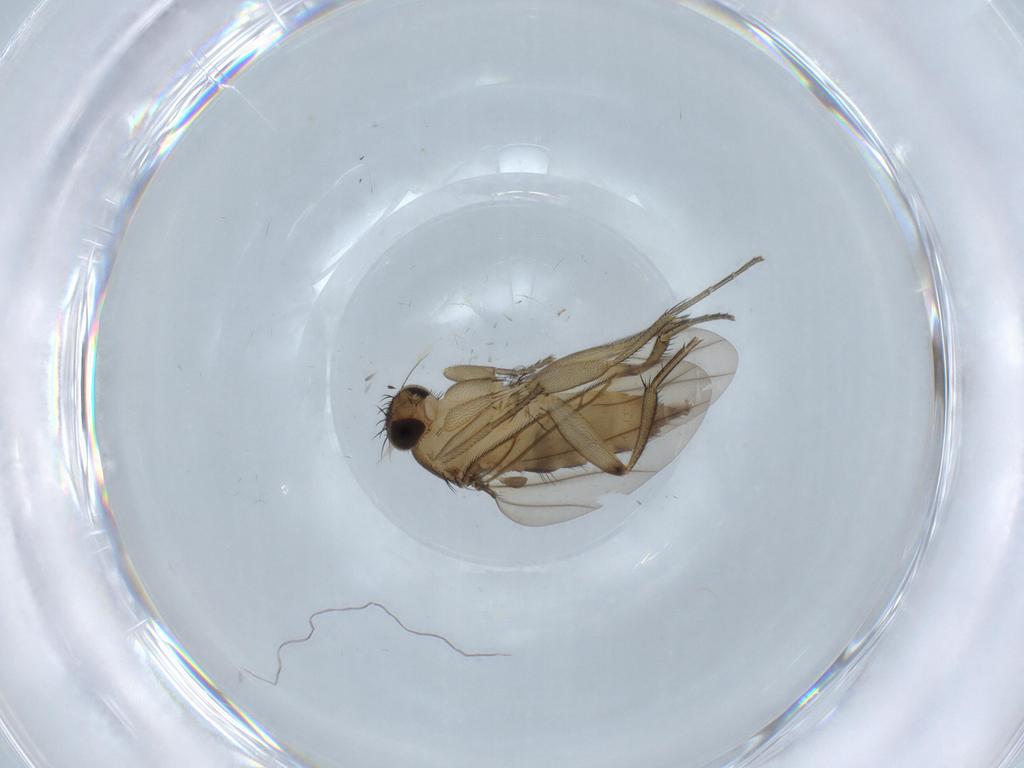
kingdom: Animalia
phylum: Arthropoda
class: Insecta
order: Diptera
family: Phoridae
